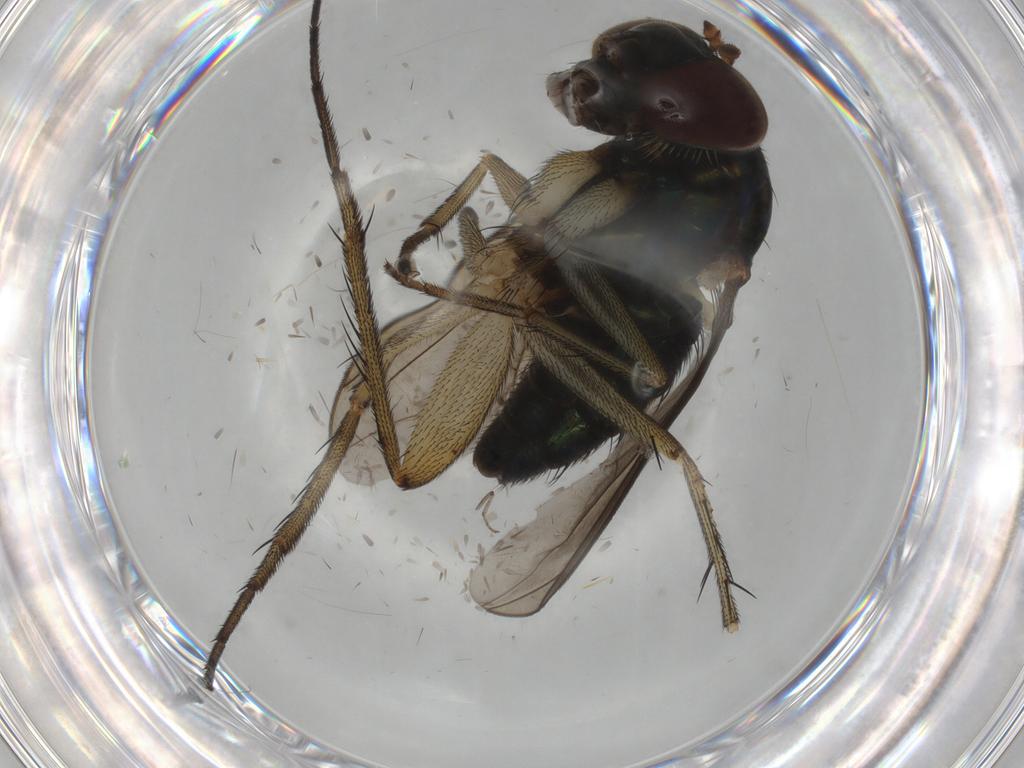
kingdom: Animalia
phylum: Arthropoda
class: Insecta
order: Diptera
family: Dolichopodidae
